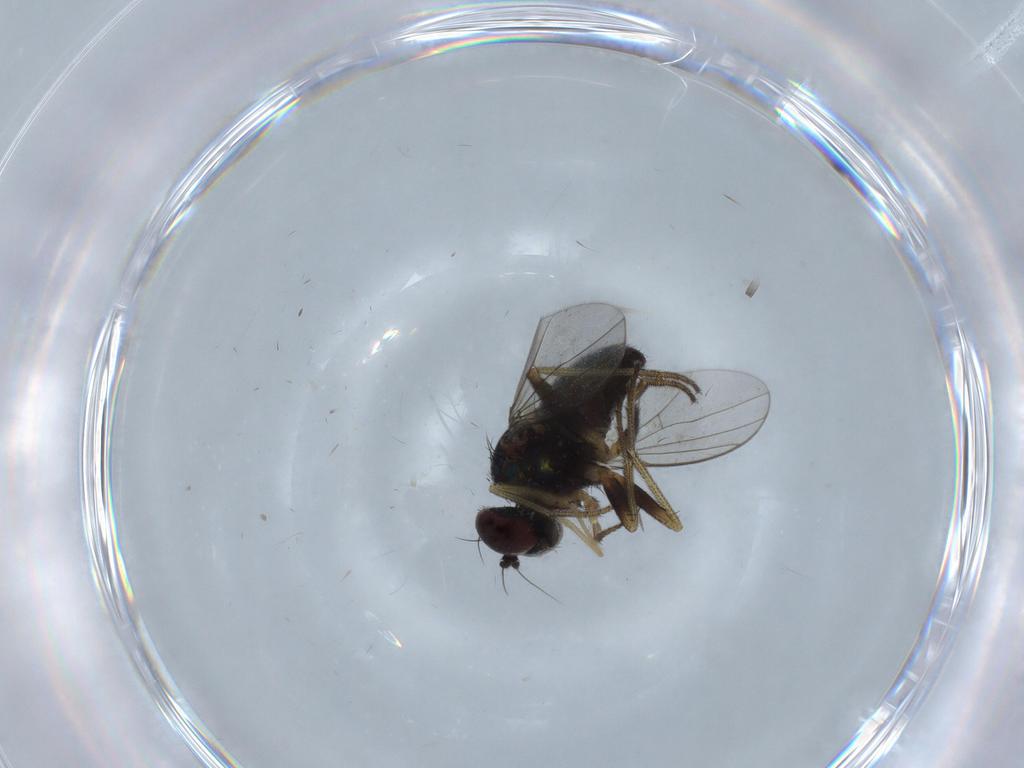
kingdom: Animalia
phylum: Arthropoda
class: Insecta
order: Diptera
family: Chironomidae
